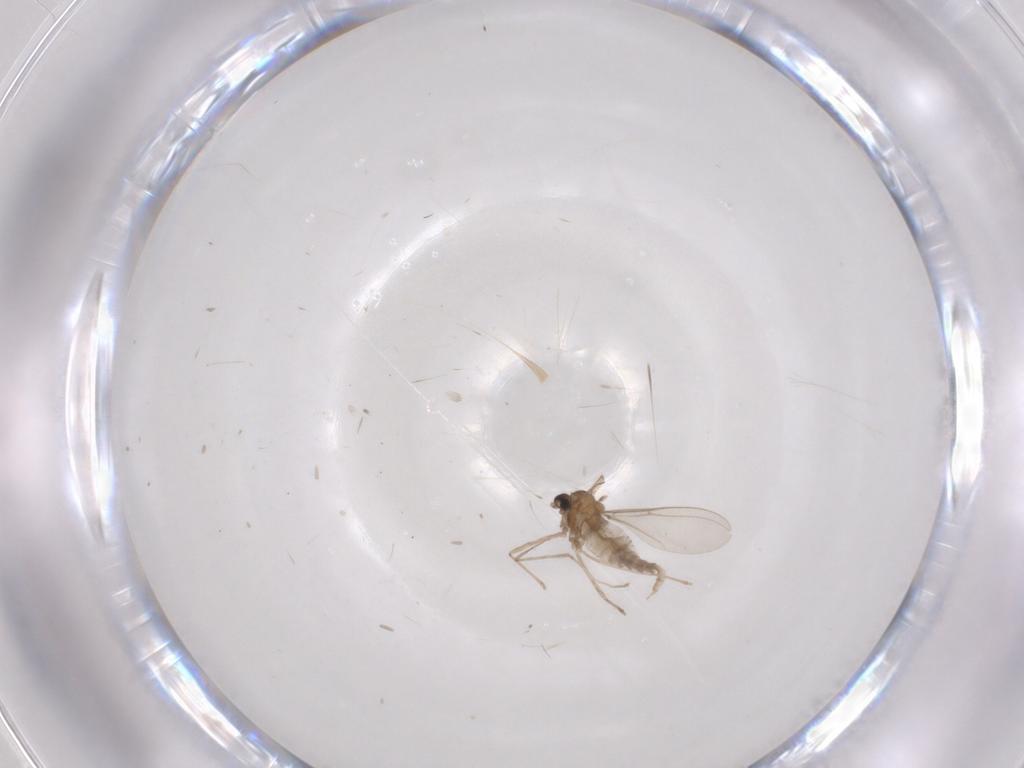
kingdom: Animalia
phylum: Arthropoda
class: Insecta
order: Diptera
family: Cecidomyiidae
